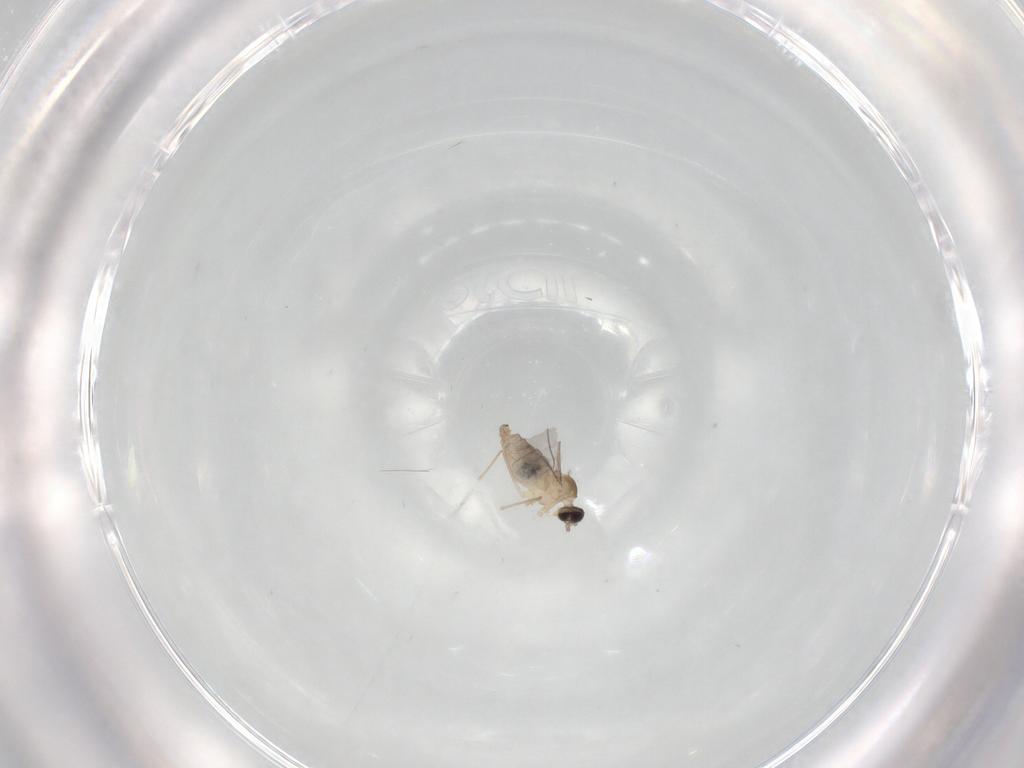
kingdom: Animalia
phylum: Arthropoda
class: Insecta
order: Diptera
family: Cecidomyiidae
